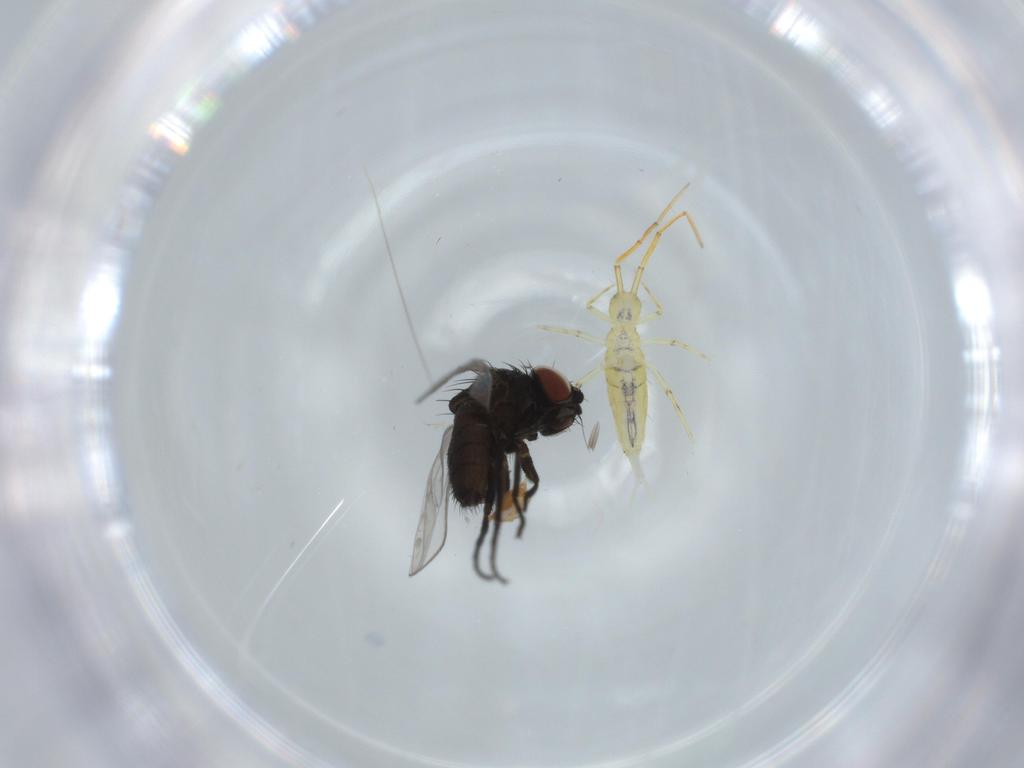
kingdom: Animalia
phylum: Arthropoda
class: Collembola
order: Entomobryomorpha
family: Paronellidae
